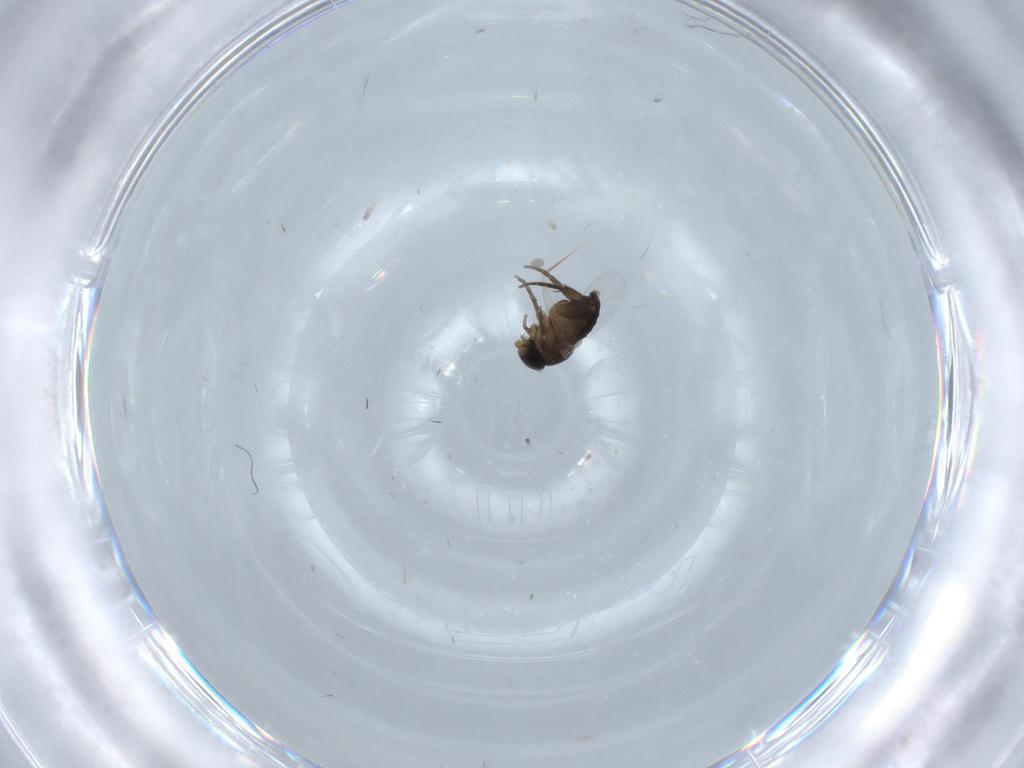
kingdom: Animalia
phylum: Arthropoda
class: Insecta
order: Diptera
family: Phoridae
